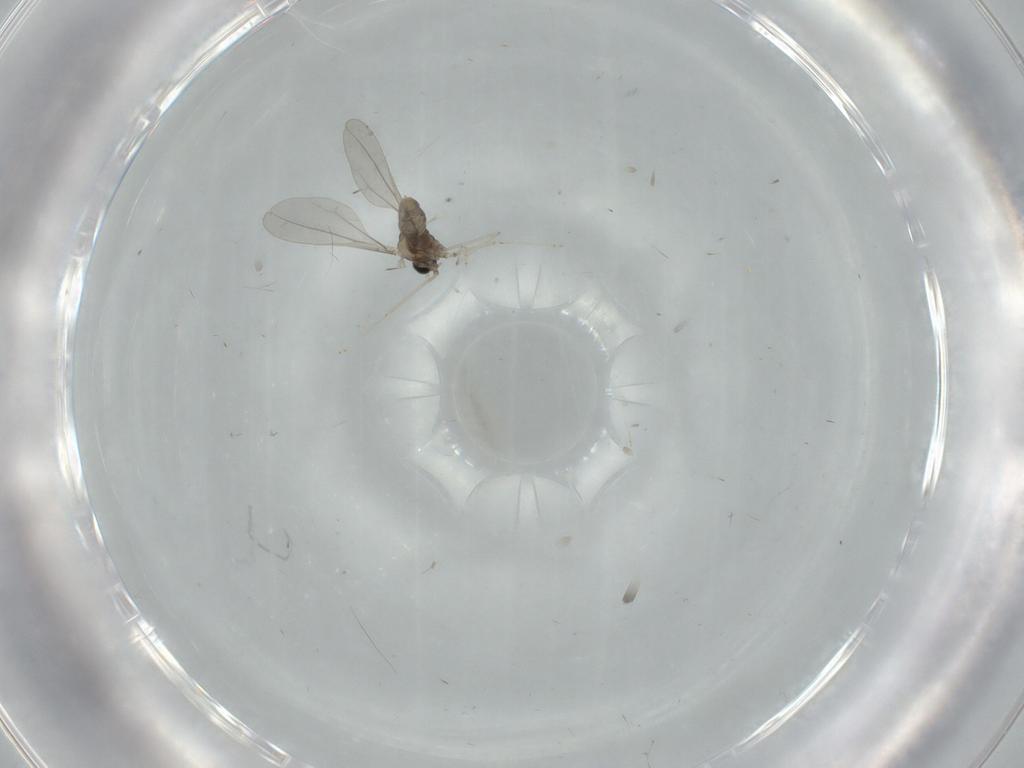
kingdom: Animalia
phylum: Arthropoda
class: Insecta
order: Diptera
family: Cecidomyiidae
